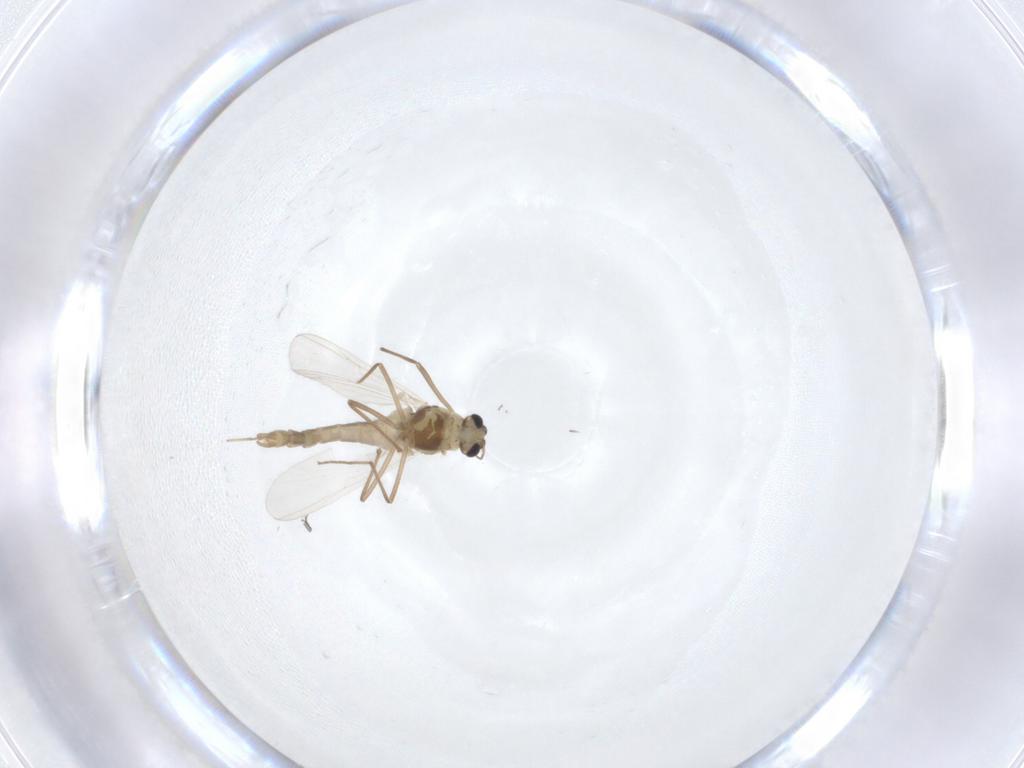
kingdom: Animalia
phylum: Arthropoda
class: Insecta
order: Diptera
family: Chironomidae
